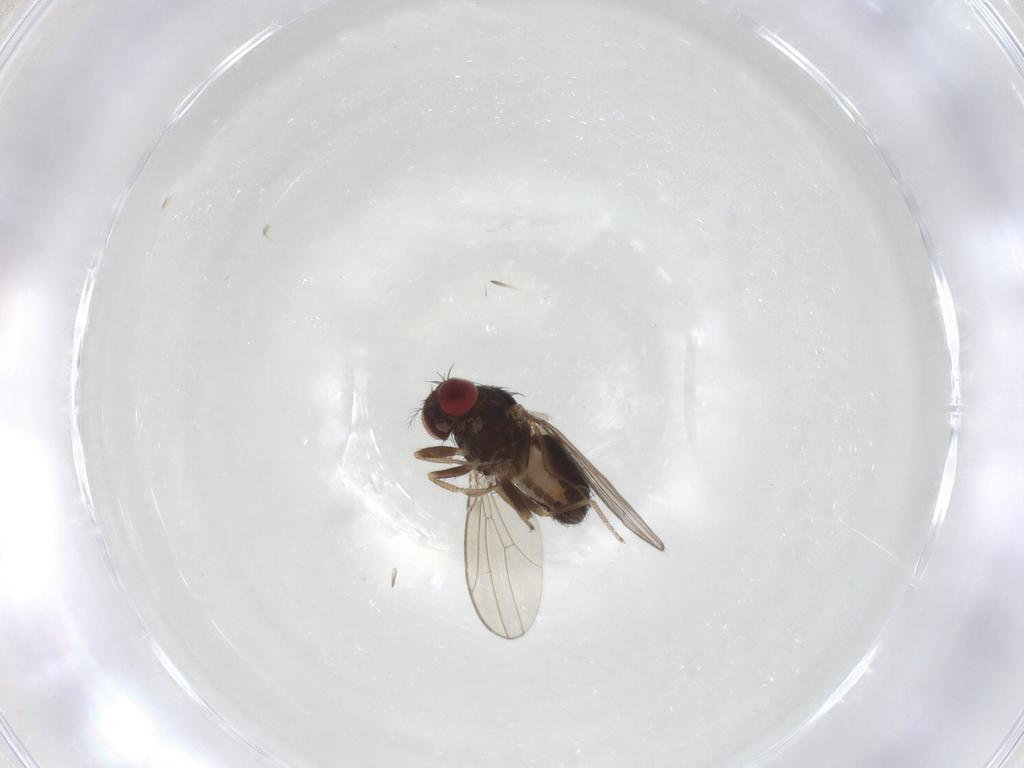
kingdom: Animalia
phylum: Arthropoda
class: Insecta
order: Diptera
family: Drosophilidae
